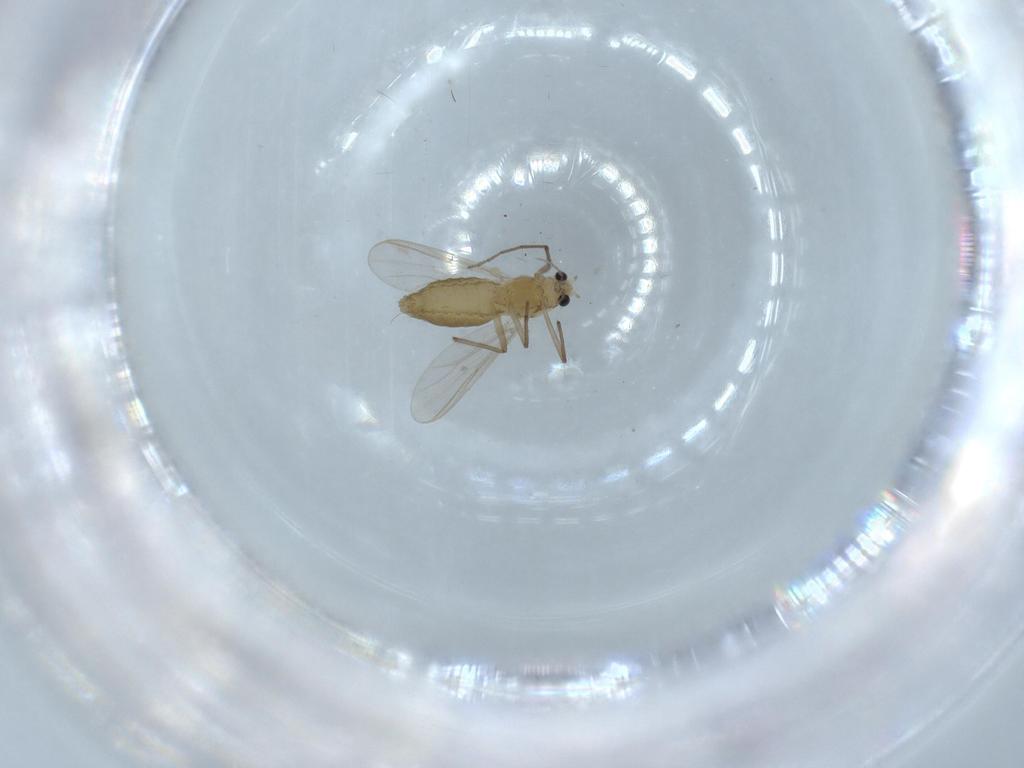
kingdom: Animalia
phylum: Arthropoda
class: Insecta
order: Diptera
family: Chironomidae
